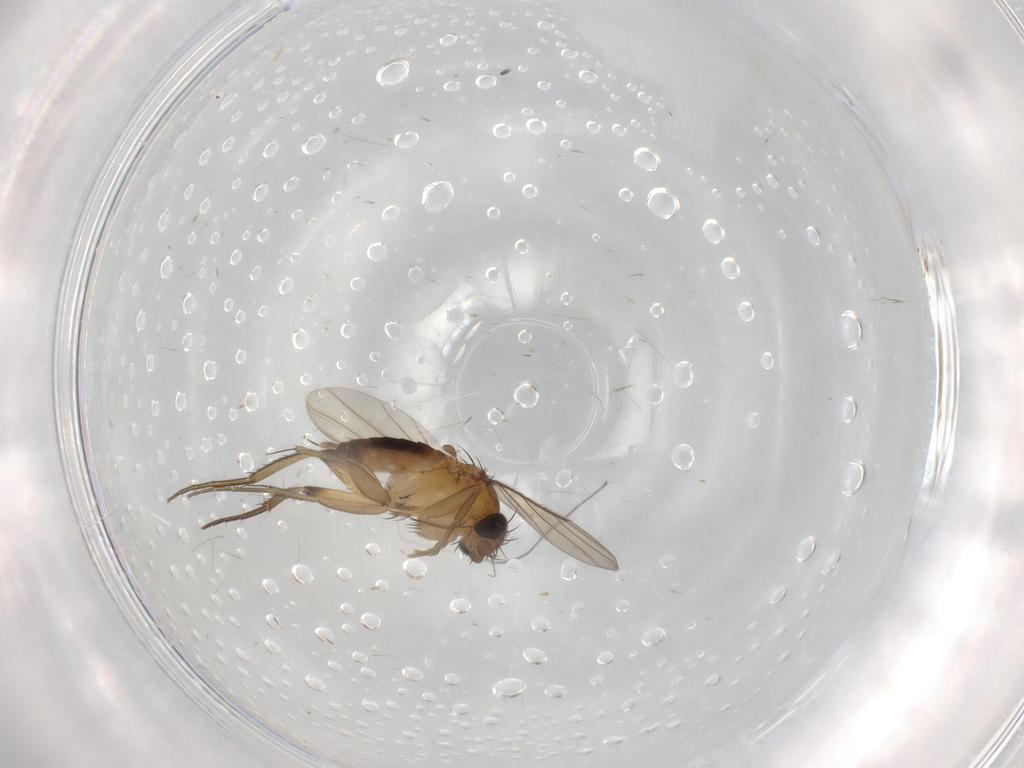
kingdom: Animalia
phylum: Arthropoda
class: Insecta
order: Diptera
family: Phoridae
